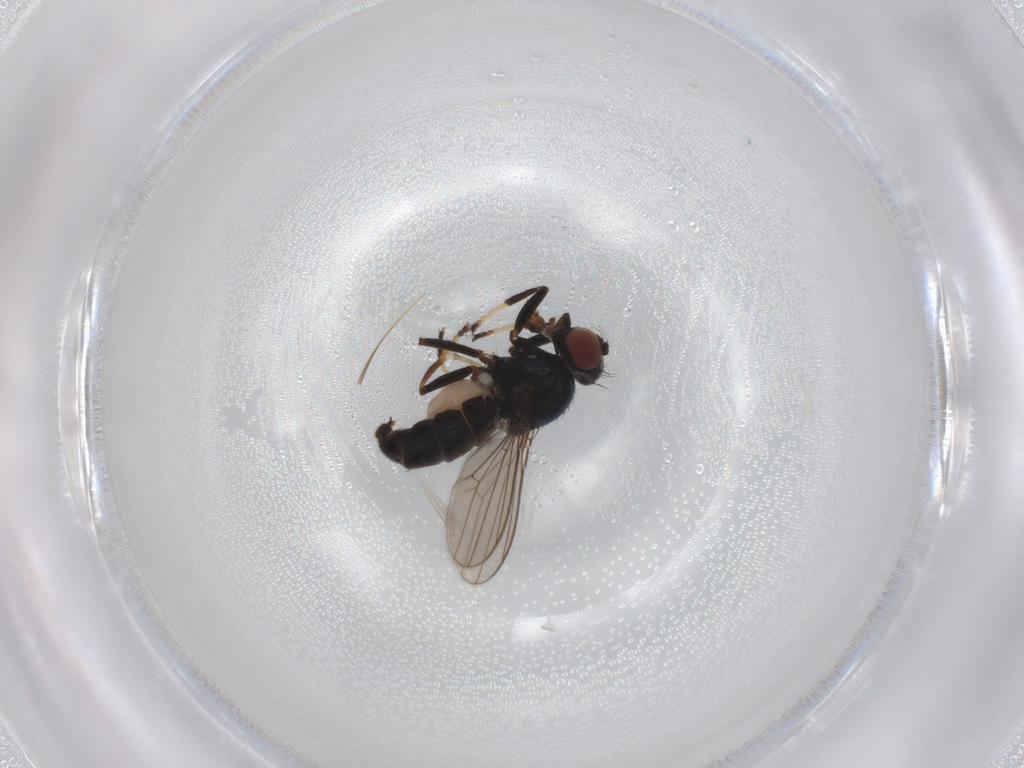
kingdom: Animalia
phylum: Arthropoda
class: Insecta
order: Diptera
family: Ephydridae
